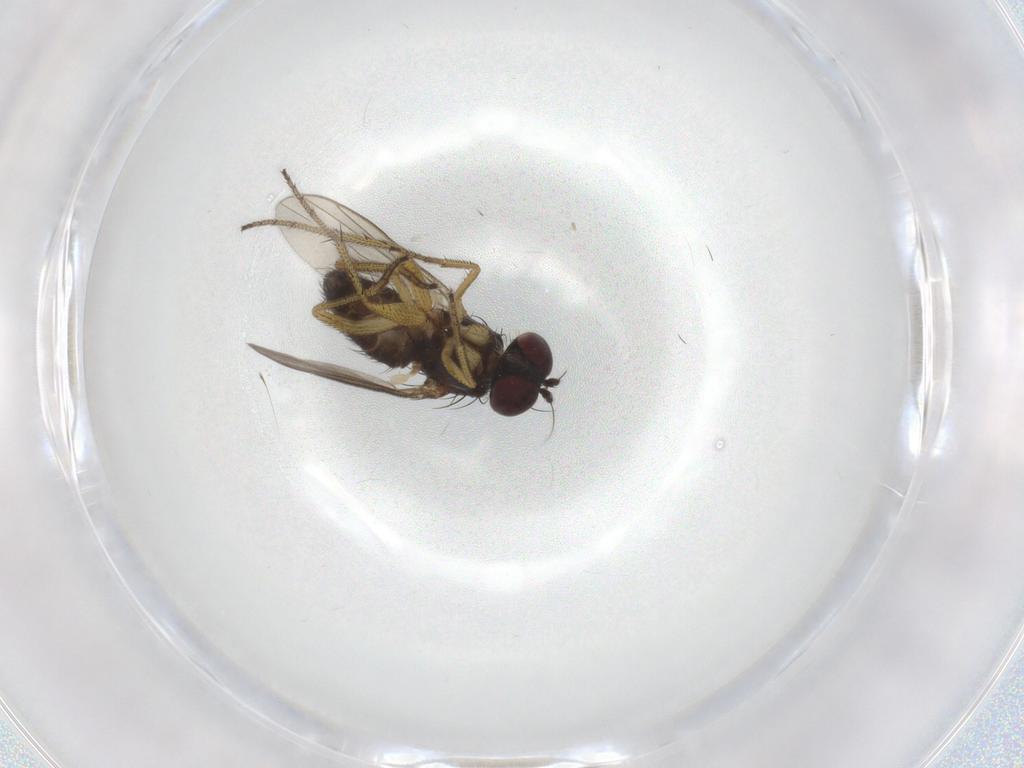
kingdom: Animalia
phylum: Arthropoda
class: Insecta
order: Diptera
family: Dolichopodidae
